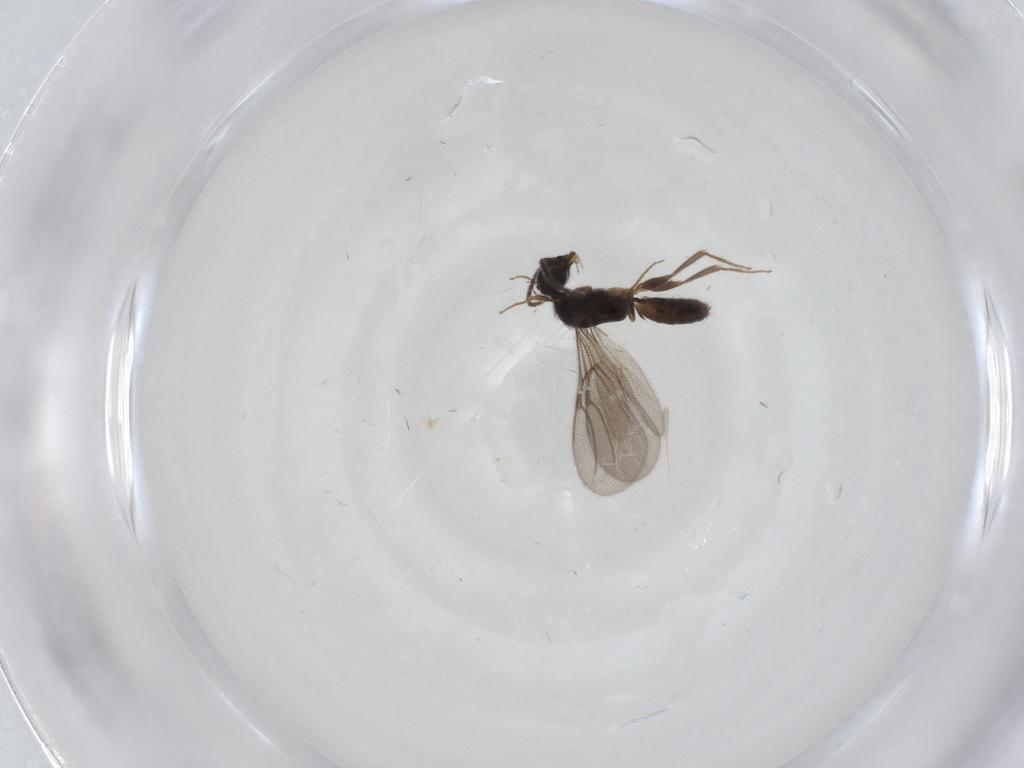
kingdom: Animalia
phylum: Arthropoda
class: Insecta
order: Hymenoptera
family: Bethylidae
